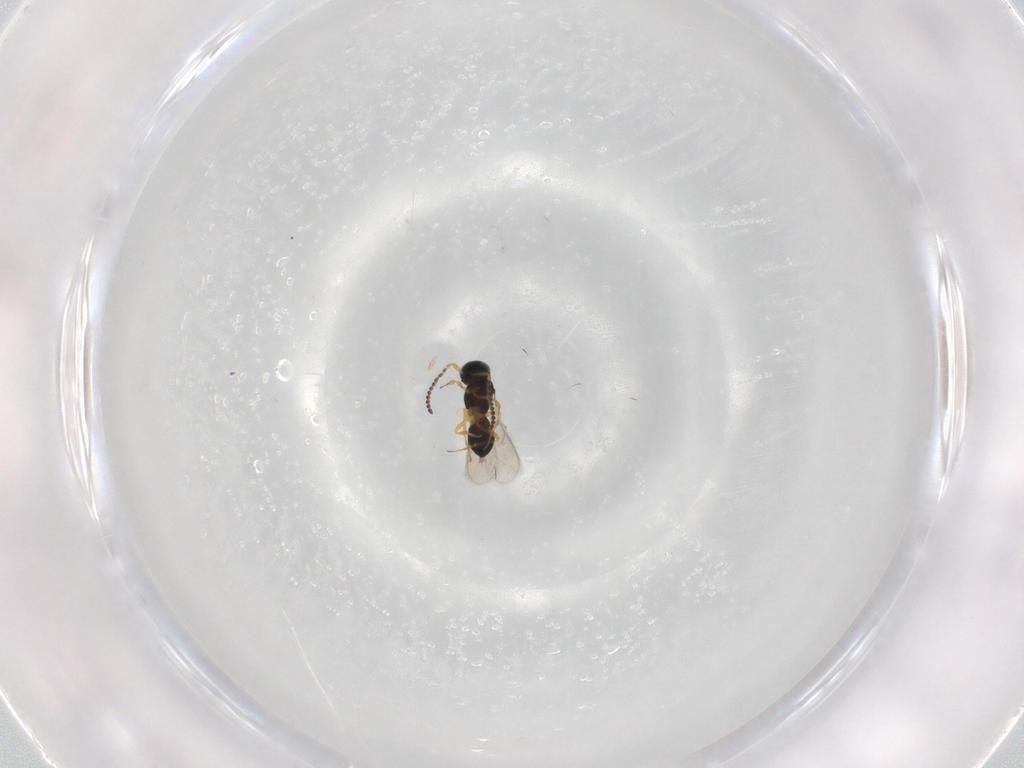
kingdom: Animalia
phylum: Arthropoda
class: Insecta
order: Hymenoptera
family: Scelionidae
